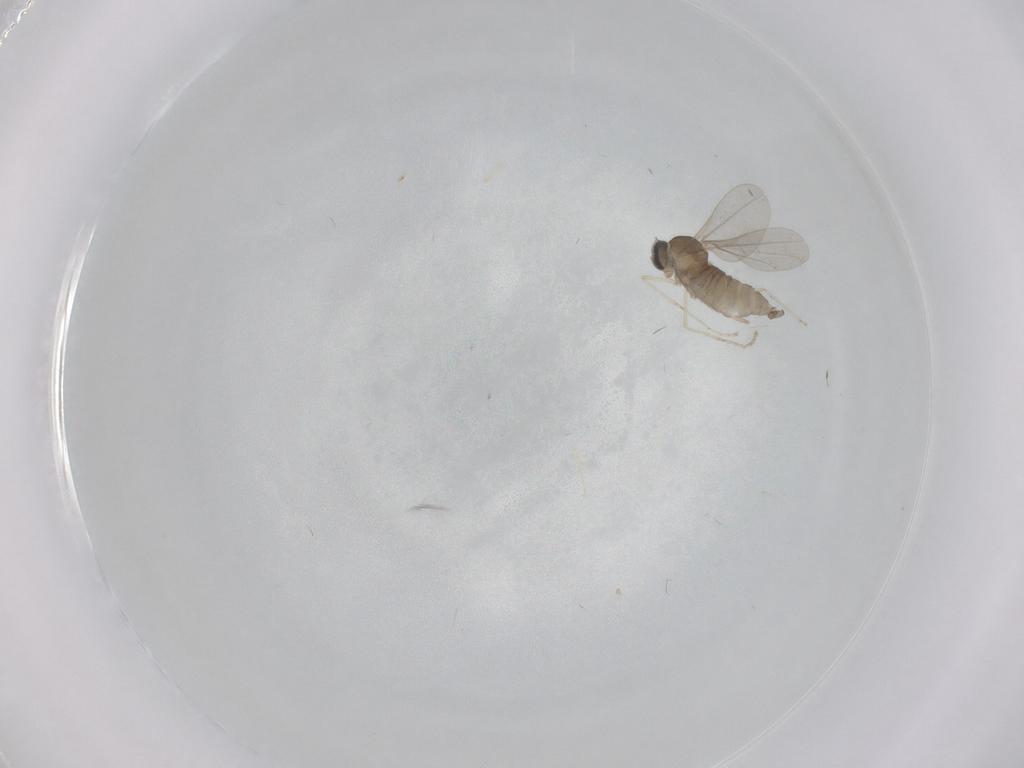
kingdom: Animalia
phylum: Arthropoda
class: Insecta
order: Diptera
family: Cecidomyiidae
